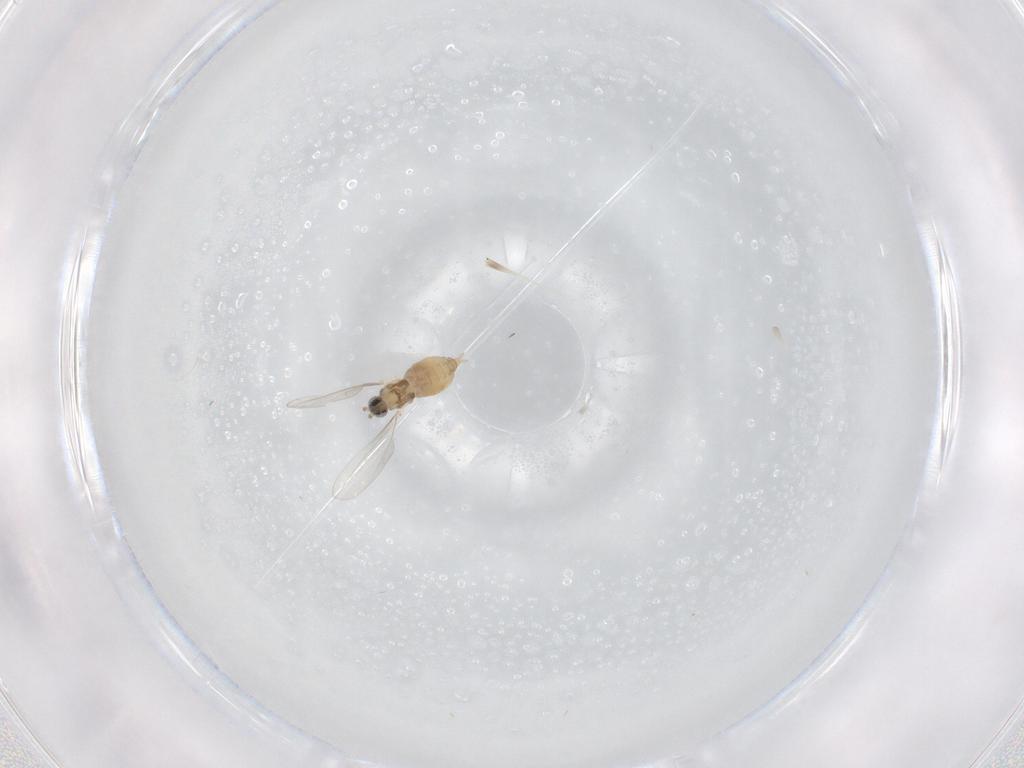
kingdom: Animalia
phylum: Arthropoda
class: Insecta
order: Diptera
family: Cecidomyiidae
